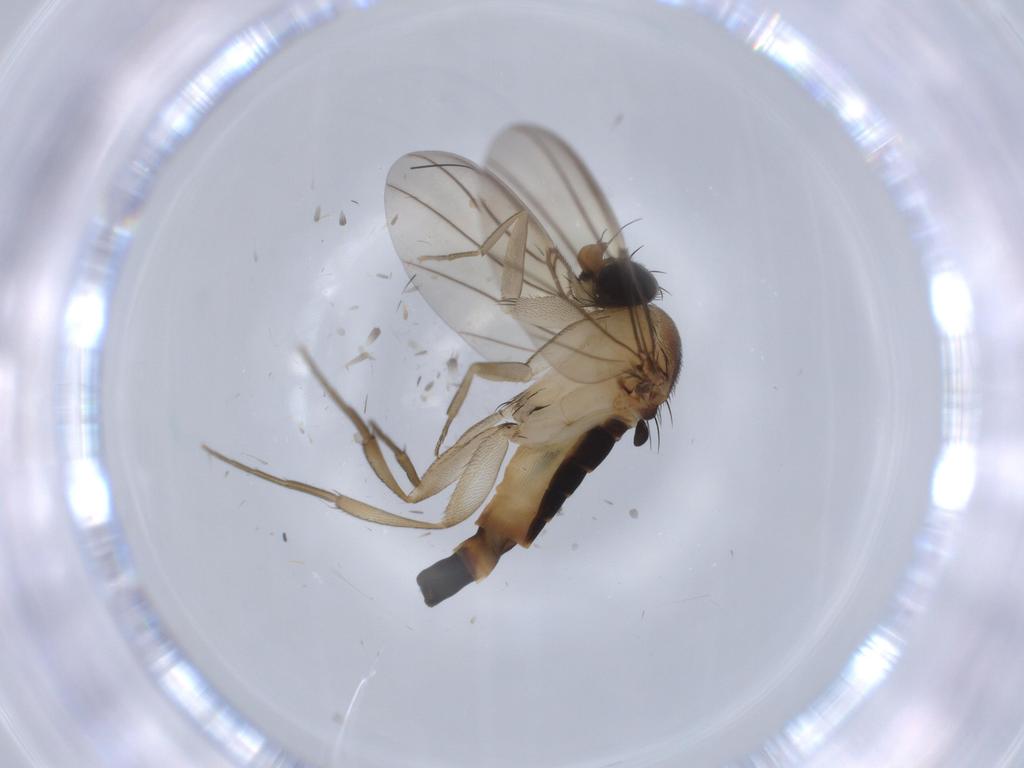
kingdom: Animalia
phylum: Arthropoda
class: Insecta
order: Diptera
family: Phoridae
